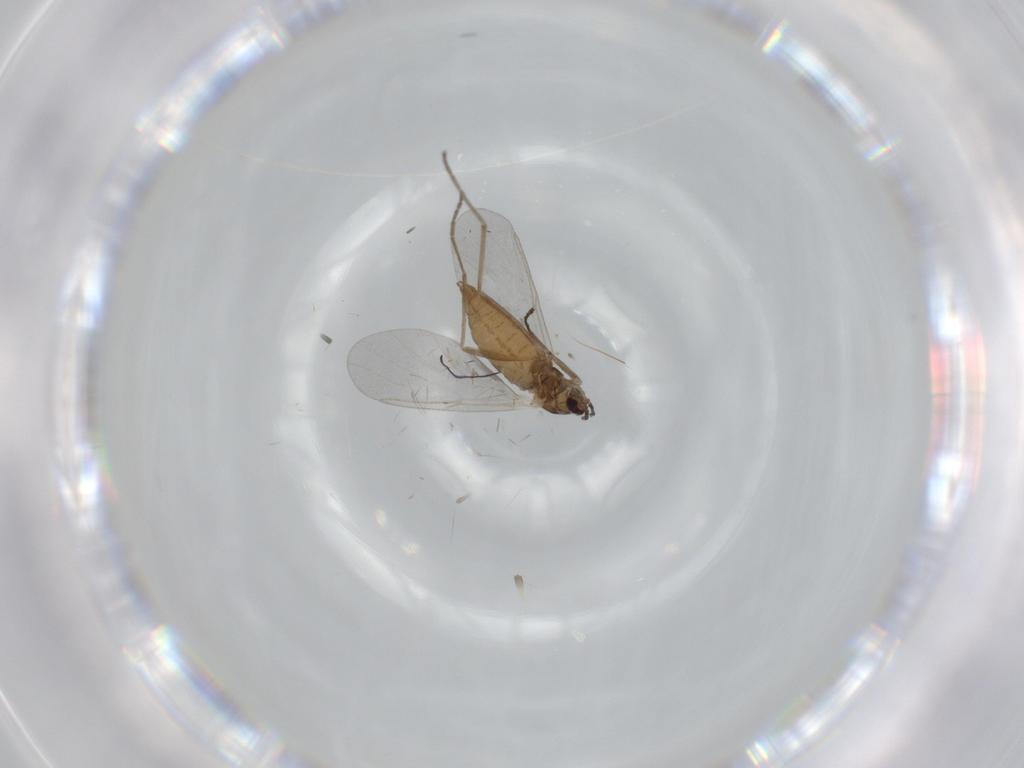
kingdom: Animalia
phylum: Arthropoda
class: Insecta
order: Diptera
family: Cecidomyiidae
